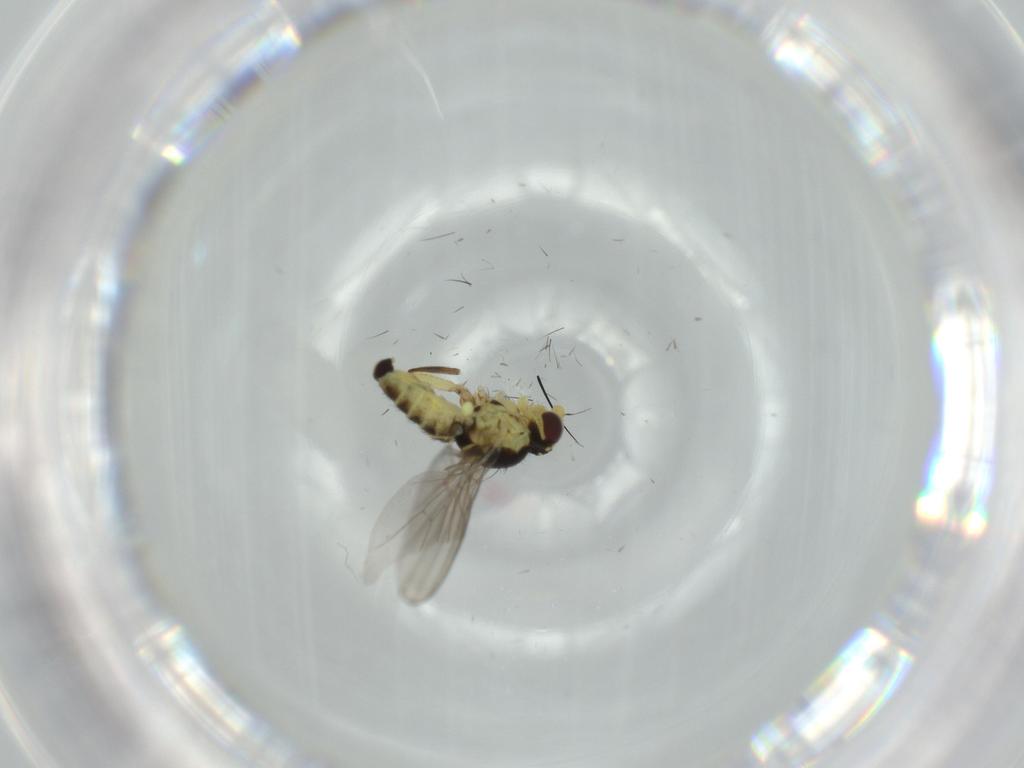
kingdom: Animalia
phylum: Arthropoda
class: Insecta
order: Diptera
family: Agromyzidae
